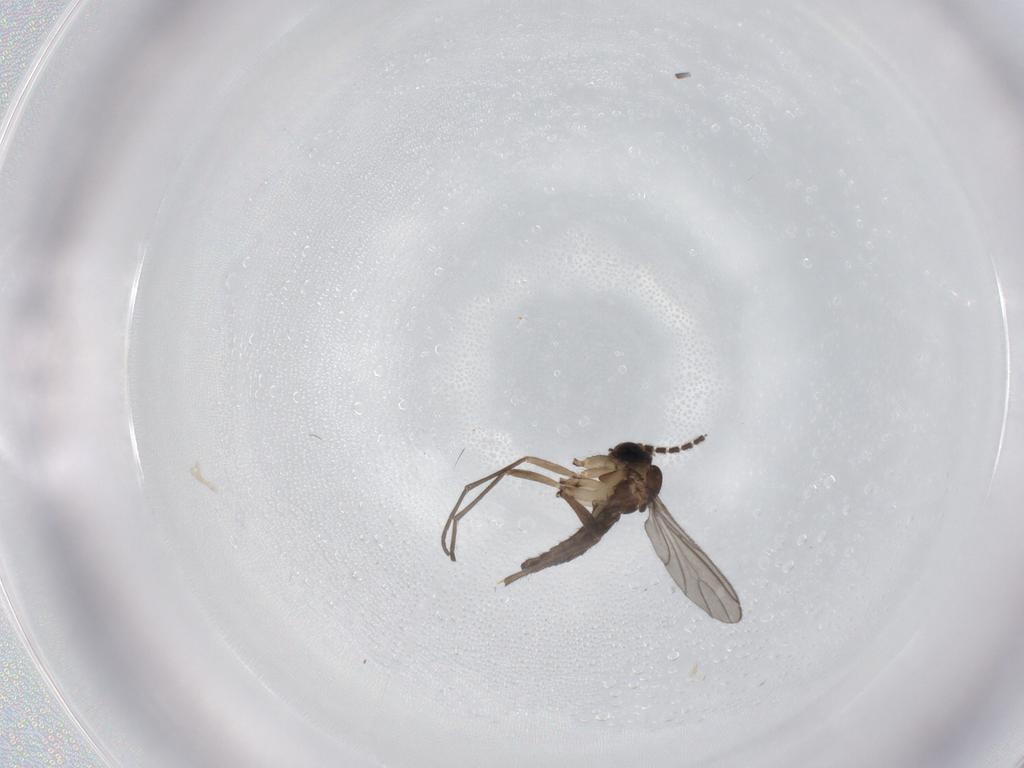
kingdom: Animalia
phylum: Arthropoda
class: Insecta
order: Diptera
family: Sciaridae
